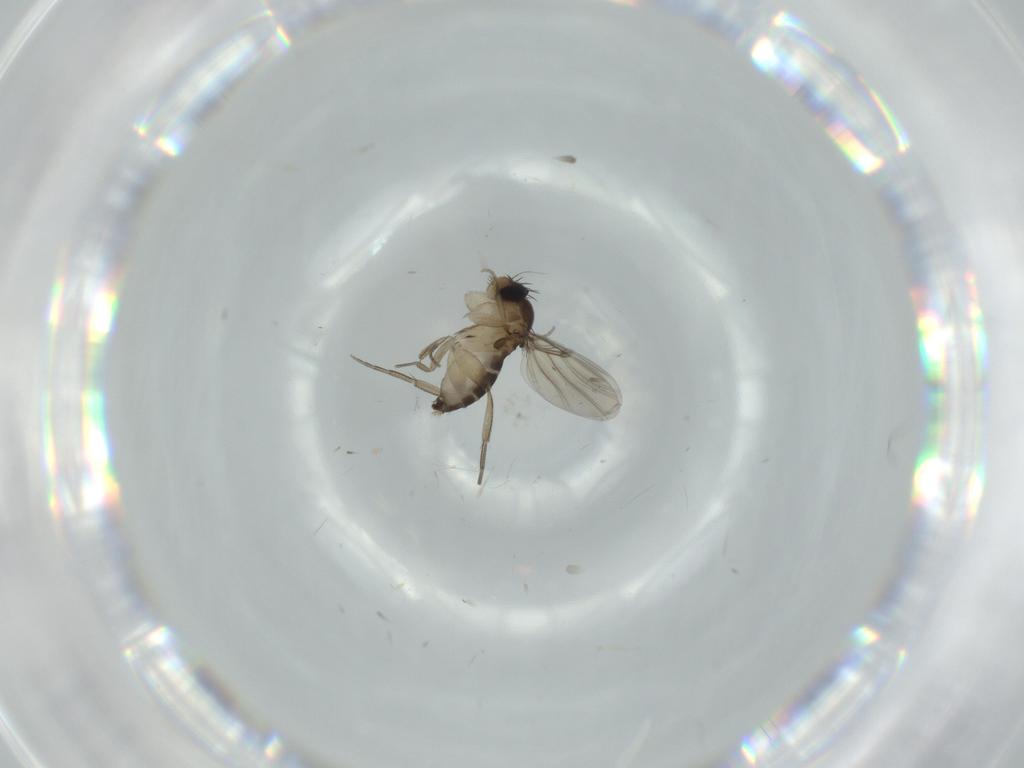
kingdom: Animalia
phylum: Arthropoda
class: Insecta
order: Diptera
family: Phoridae
